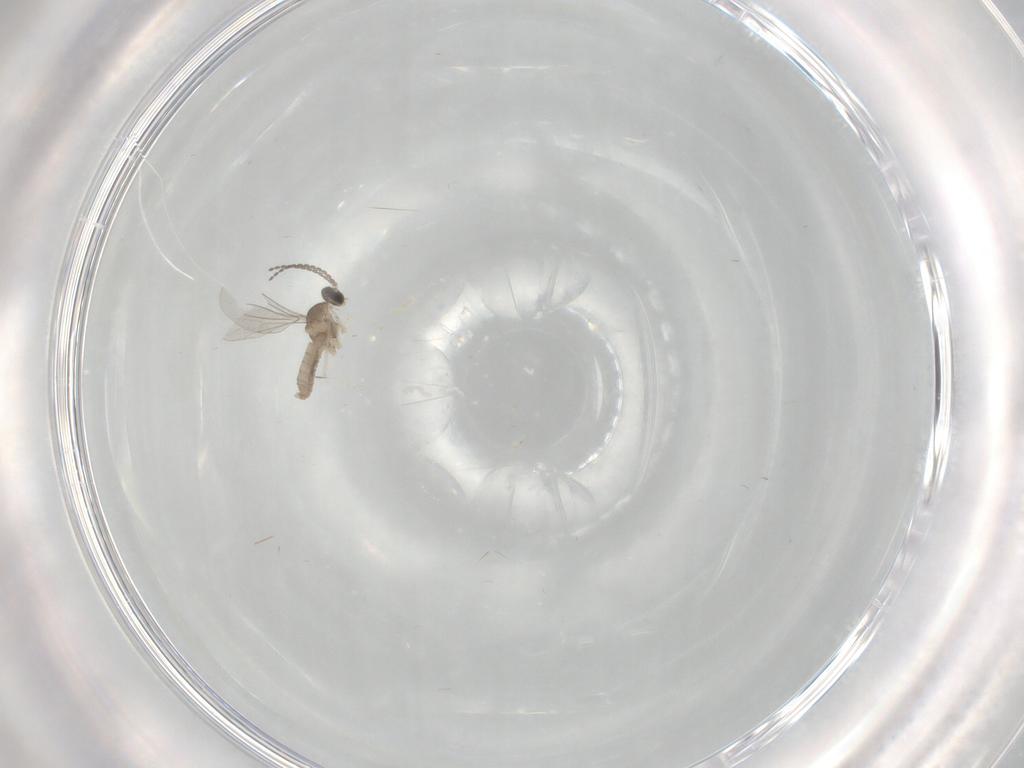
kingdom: Animalia
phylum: Arthropoda
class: Insecta
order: Diptera
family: Cecidomyiidae
